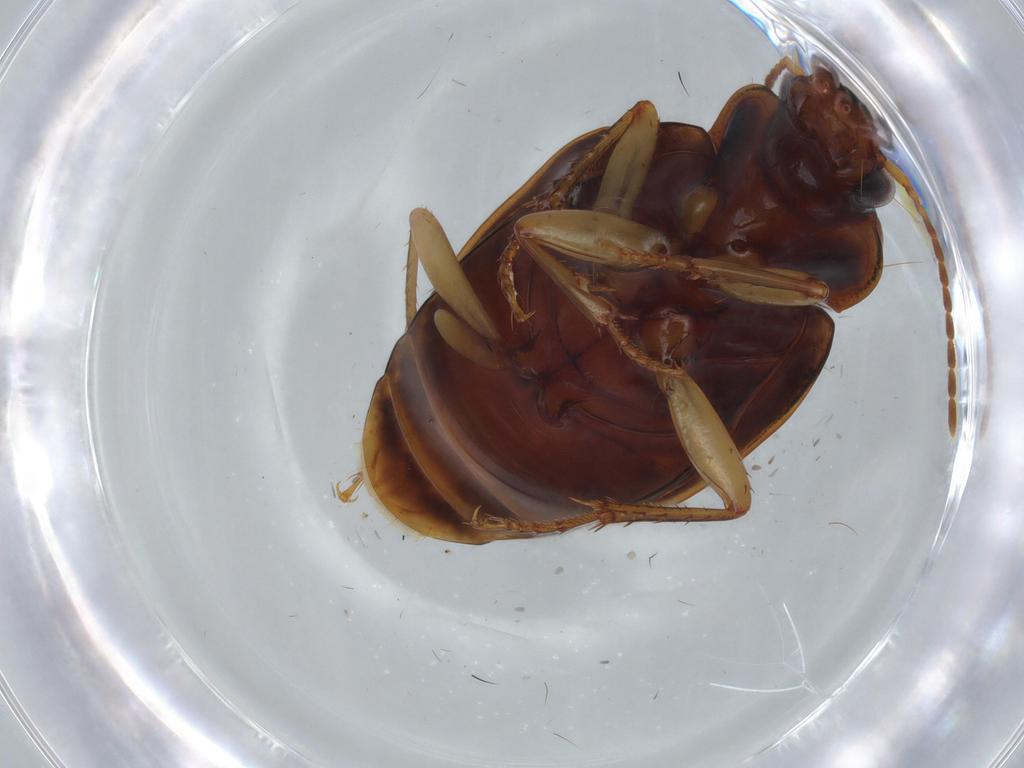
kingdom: Animalia
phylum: Arthropoda
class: Insecta
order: Coleoptera
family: Carabidae
